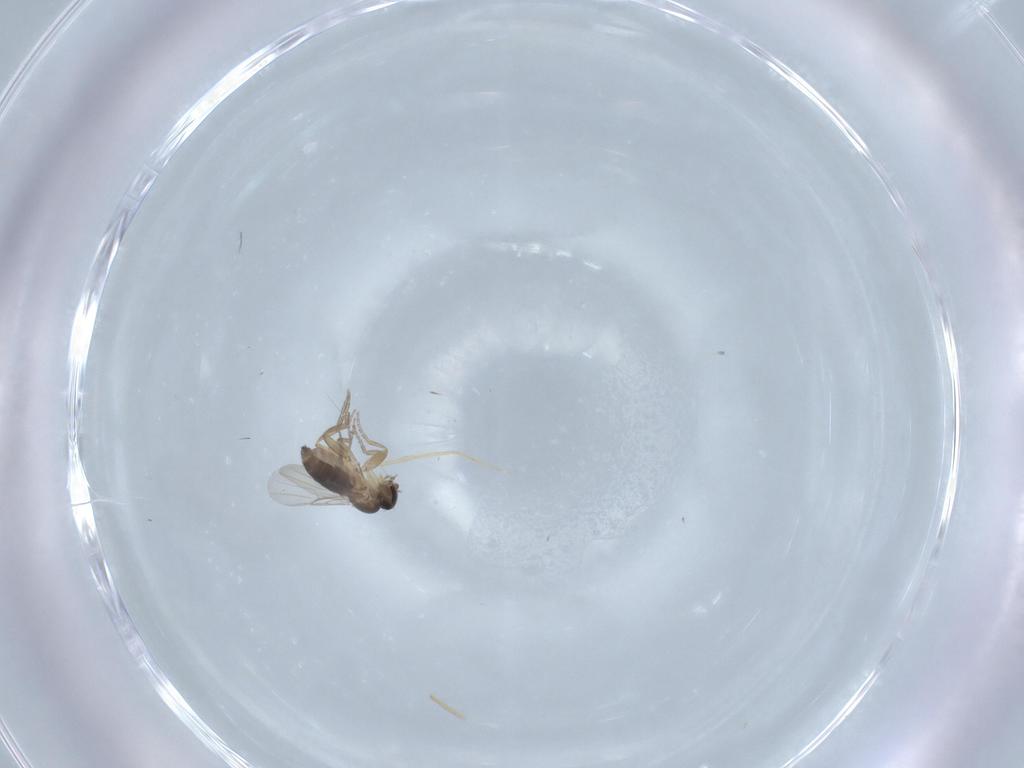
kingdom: Animalia
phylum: Arthropoda
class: Insecta
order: Diptera
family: Phoridae
